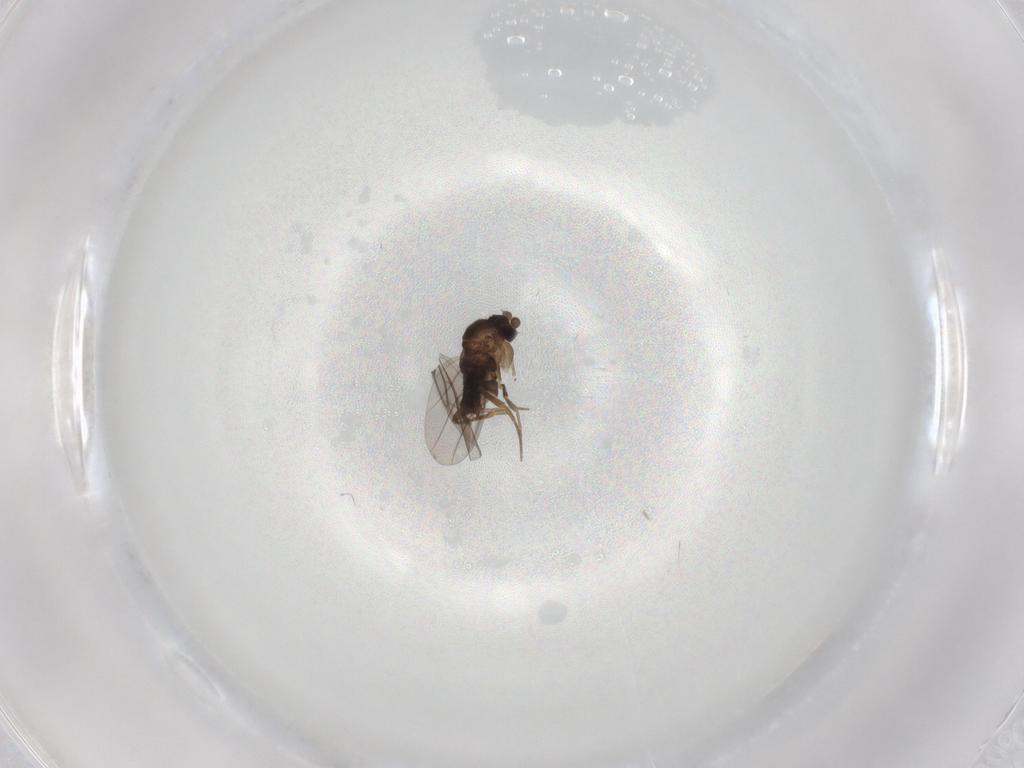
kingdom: Animalia
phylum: Arthropoda
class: Insecta
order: Diptera
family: Phoridae
